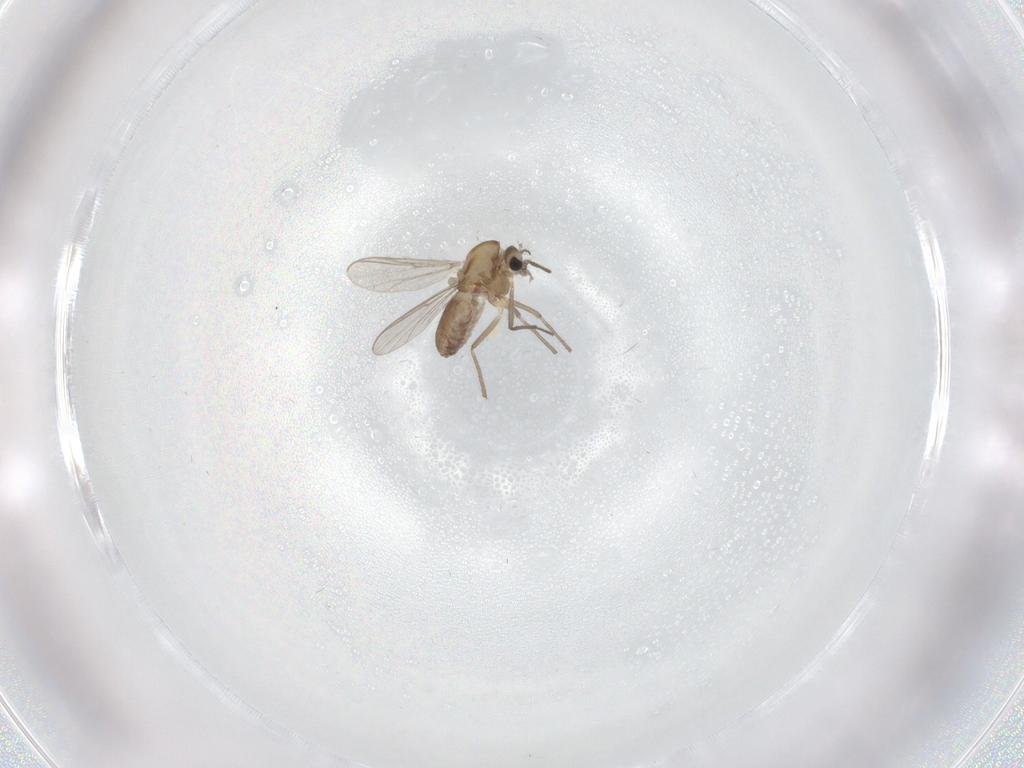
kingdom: Animalia
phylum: Arthropoda
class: Insecta
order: Diptera
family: Chironomidae
